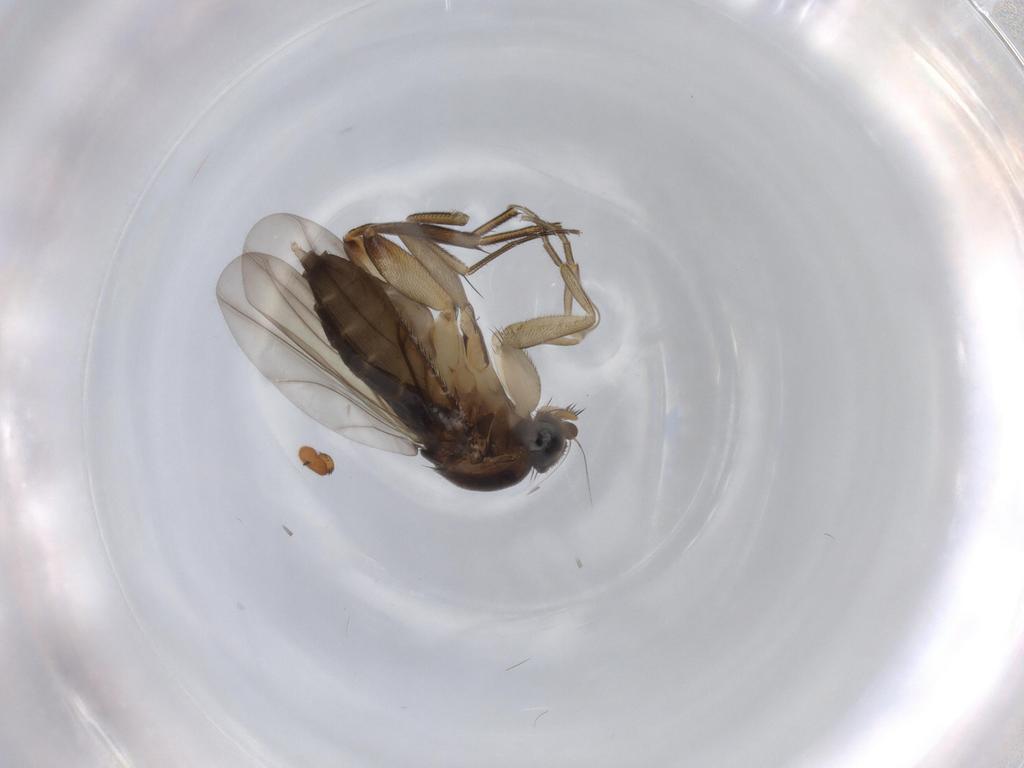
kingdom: Animalia
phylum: Arthropoda
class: Insecta
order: Diptera
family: Phoridae
